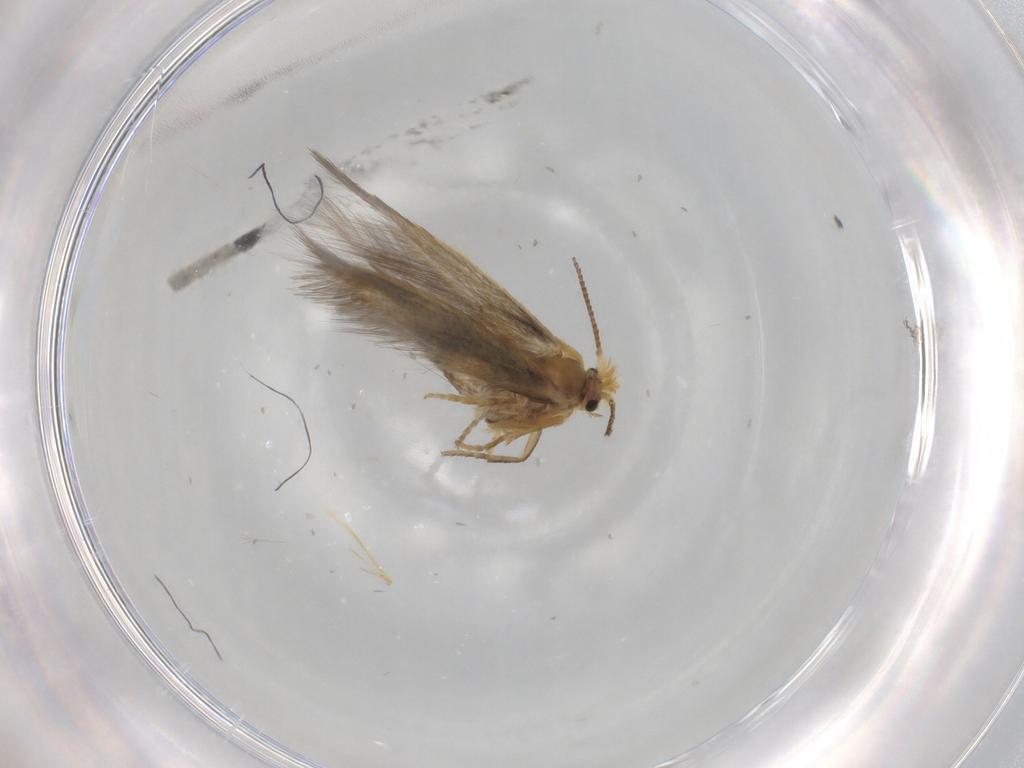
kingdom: Animalia
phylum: Arthropoda
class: Insecta
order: Lepidoptera
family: Nepticulidae
